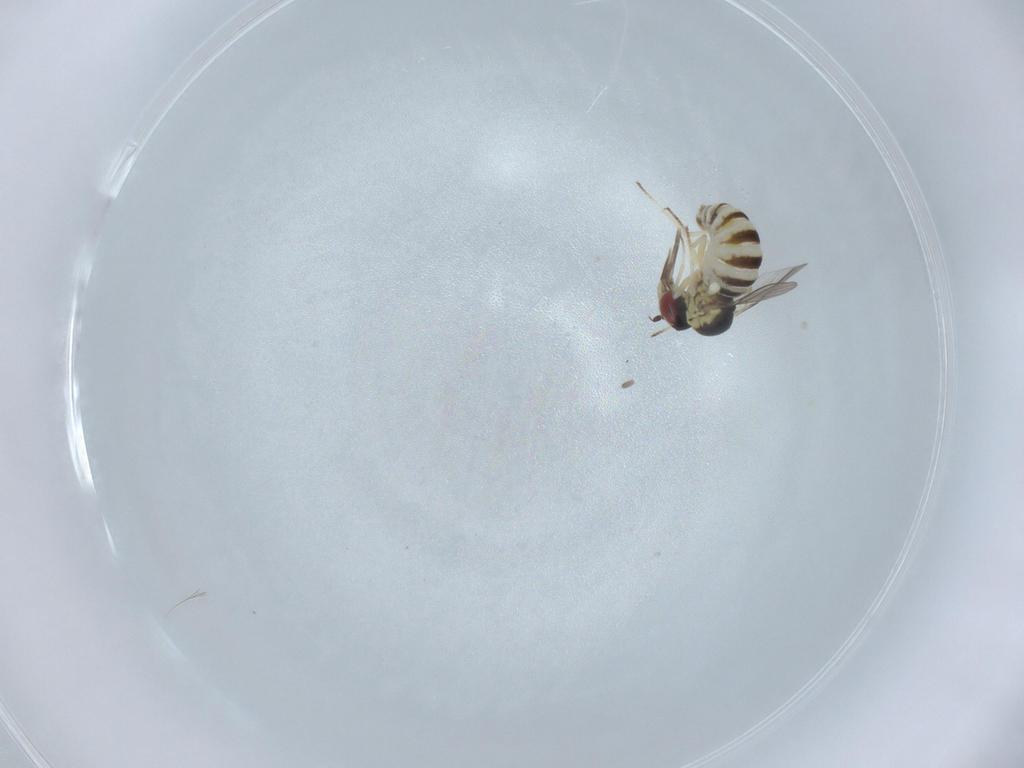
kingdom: Animalia
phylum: Arthropoda
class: Insecta
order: Diptera
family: Bombyliidae
